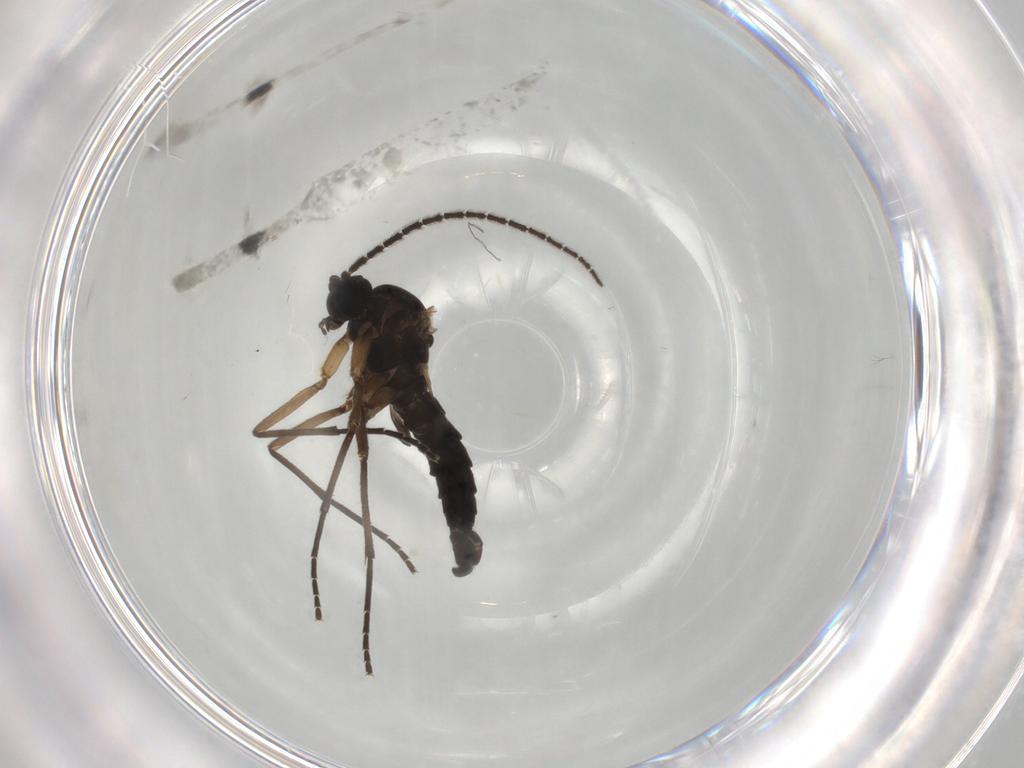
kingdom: Animalia
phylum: Arthropoda
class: Insecta
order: Diptera
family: Sciaridae
